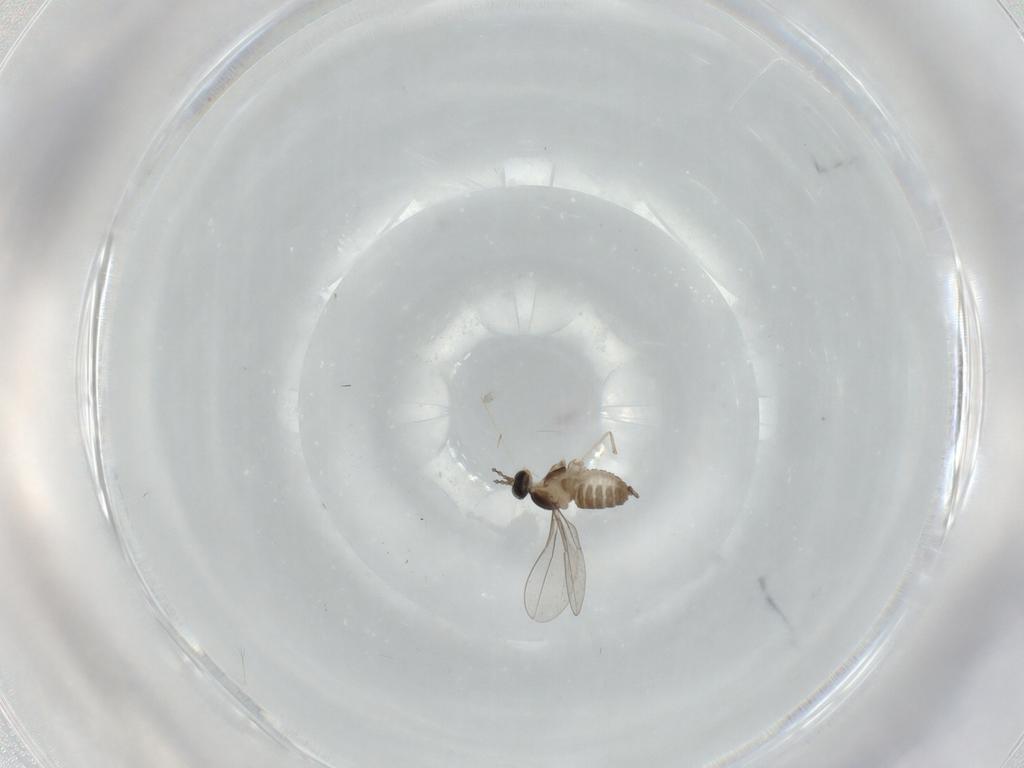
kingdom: Animalia
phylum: Arthropoda
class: Insecta
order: Diptera
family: Cecidomyiidae
